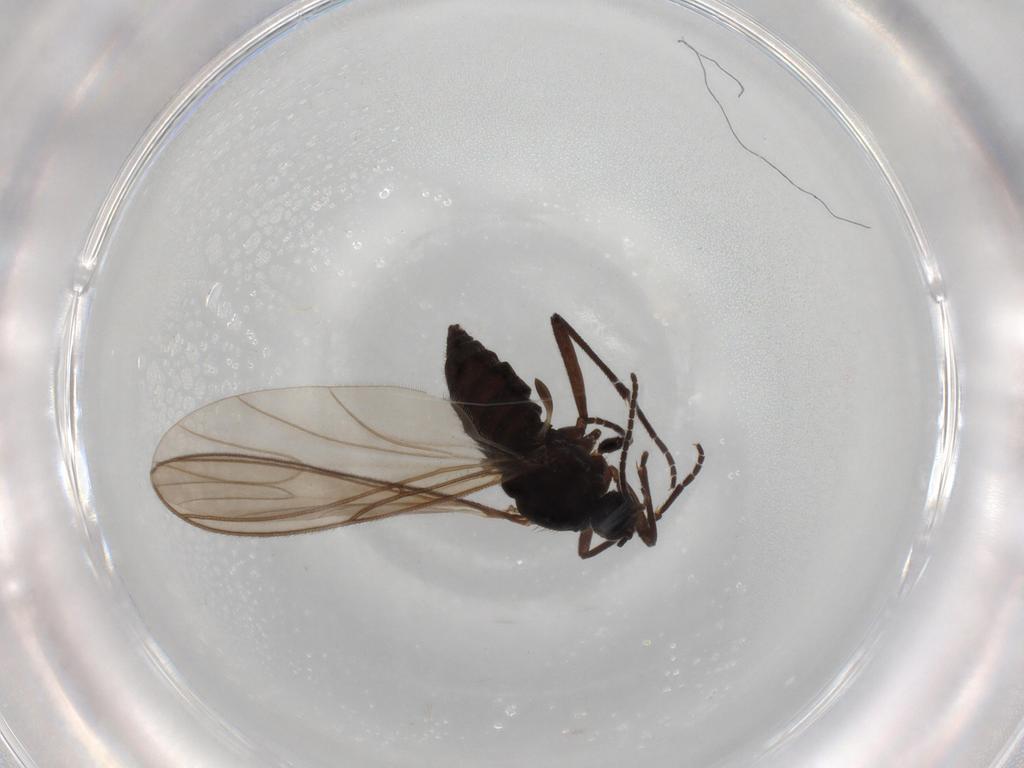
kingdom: Animalia
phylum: Arthropoda
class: Insecta
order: Diptera
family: Sciaridae
